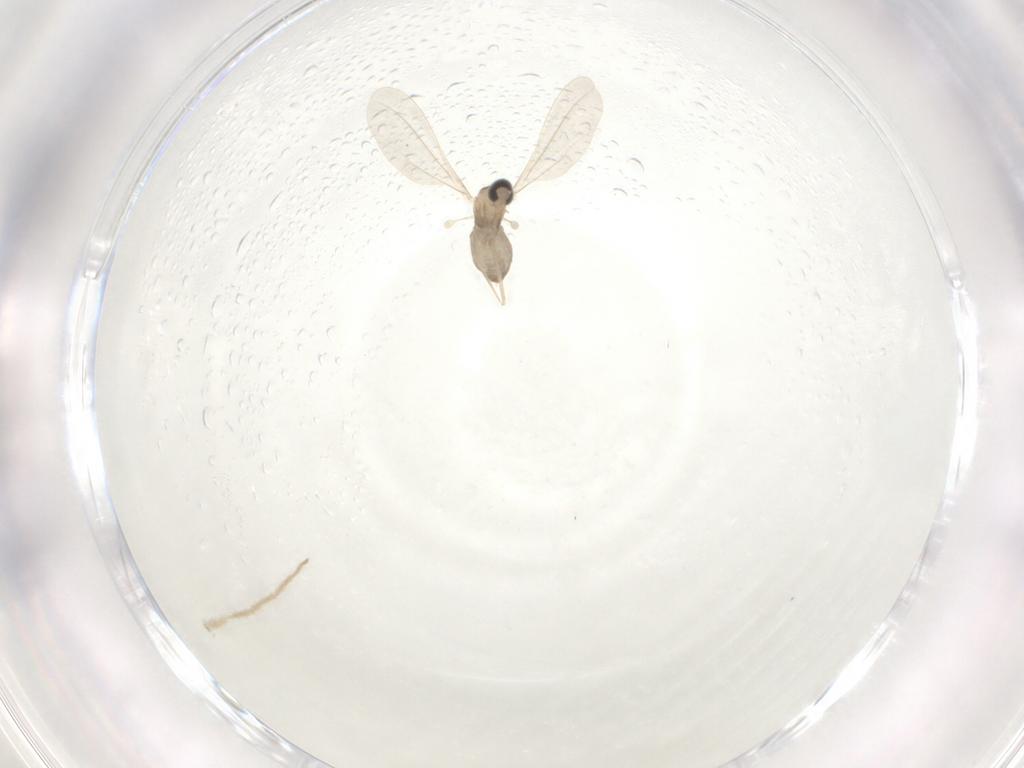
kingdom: Animalia
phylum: Arthropoda
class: Insecta
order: Diptera
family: Cecidomyiidae
